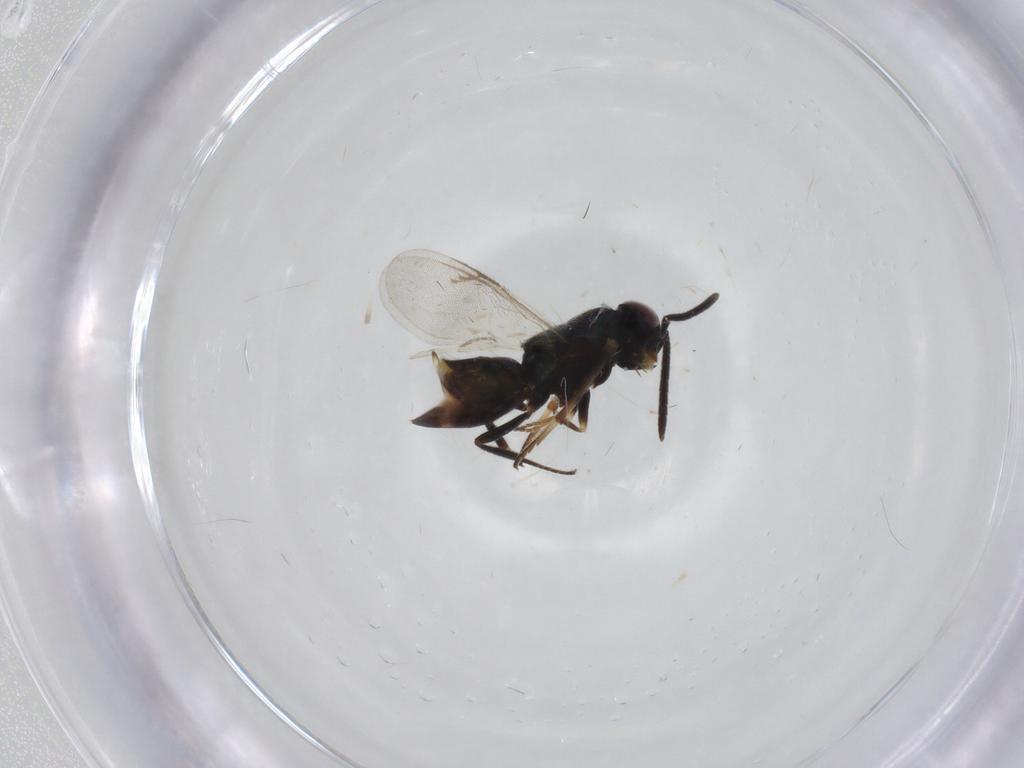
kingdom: Animalia
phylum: Arthropoda
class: Insecta
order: Hymenoptera
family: Encyrtidae
